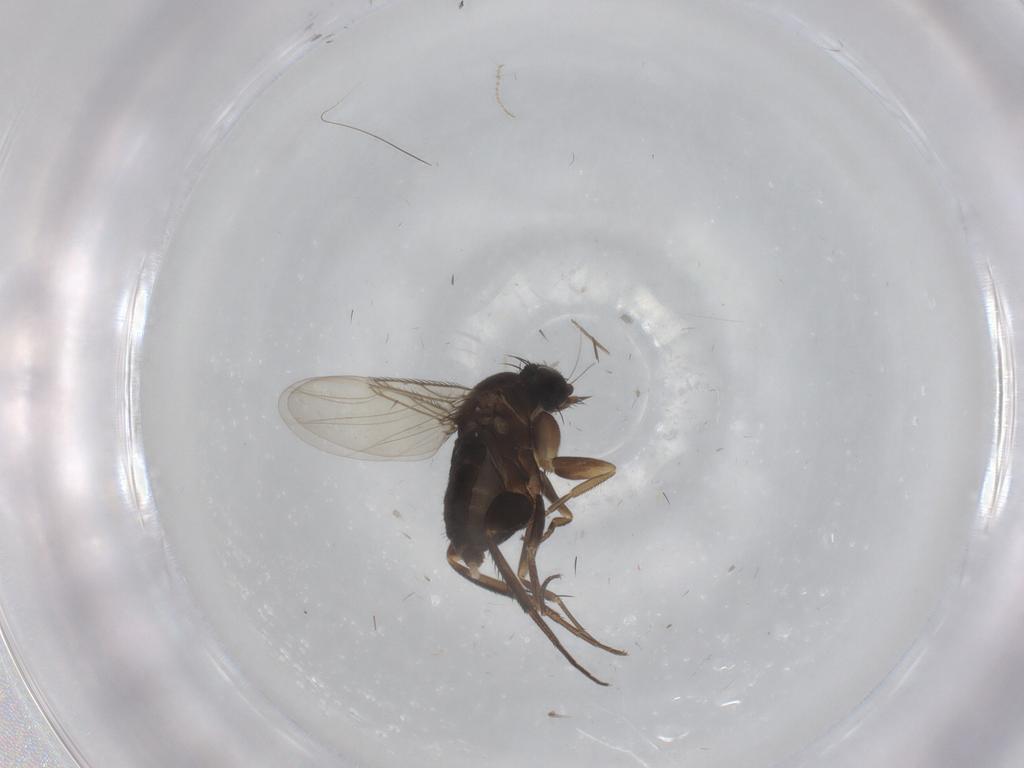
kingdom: Animalia
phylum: Arthropoda
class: Insecta
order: Diptera
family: Phoridae
